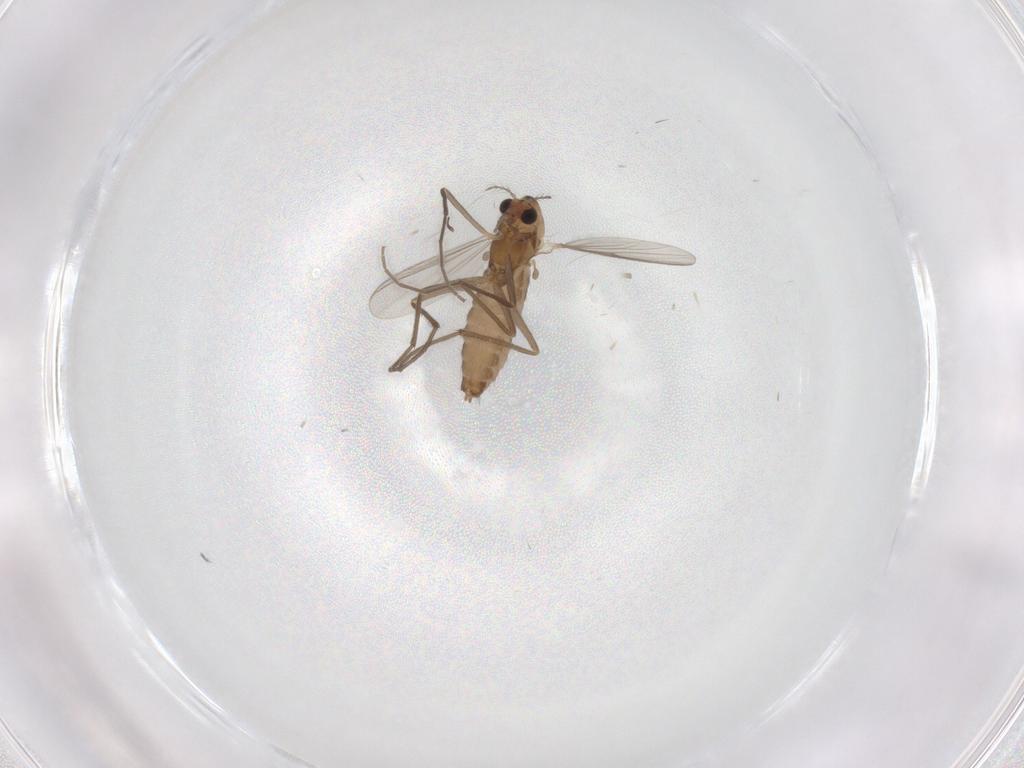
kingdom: Animalia
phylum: Arthropoda
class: Insecta
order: Diptera
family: Chironomidae
